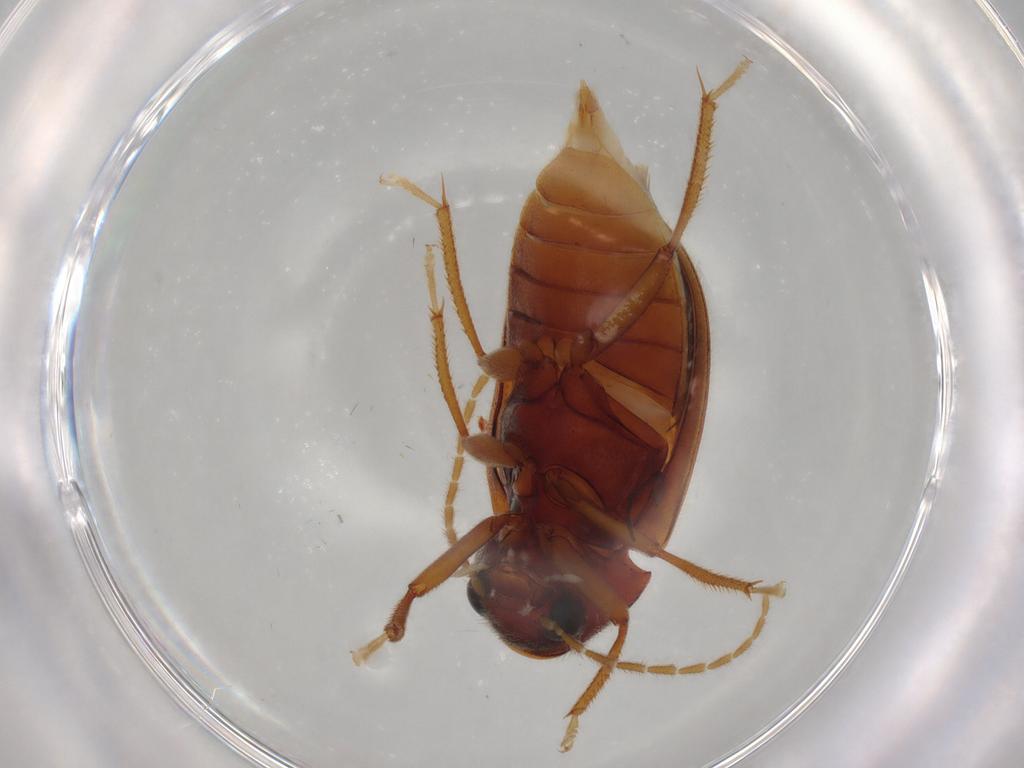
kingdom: Animalia
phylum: Arthropoda
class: Insecta
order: Coleoptera
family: Ptilodactylidae
